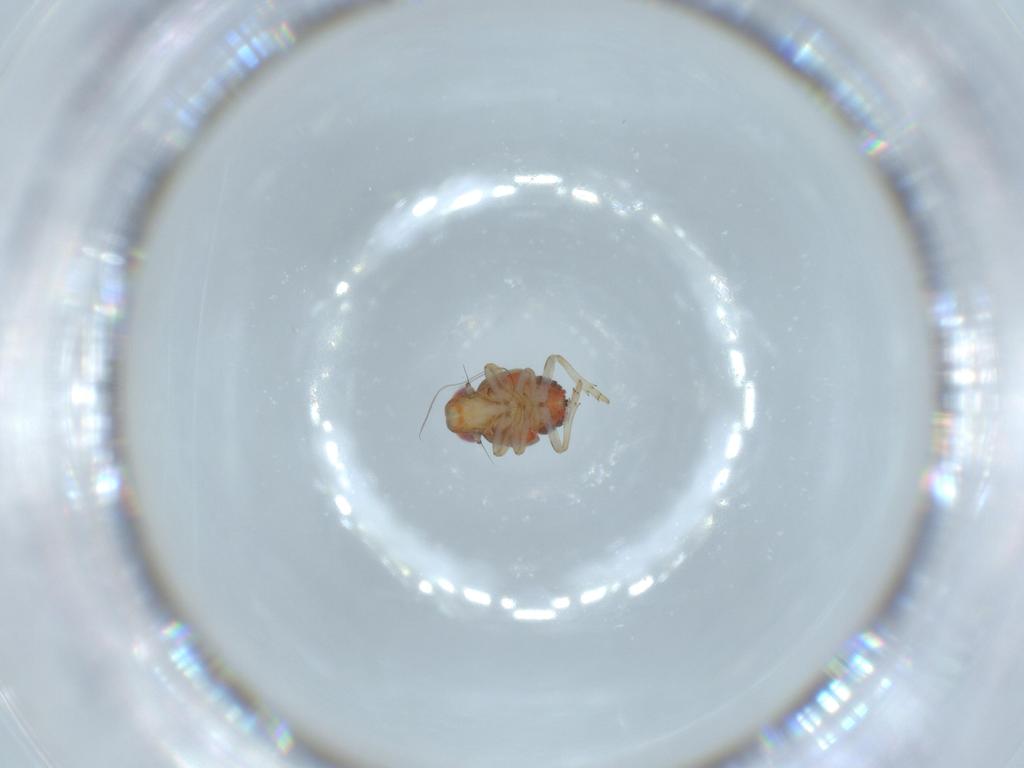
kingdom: Animalia
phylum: Arthropoda
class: Insecta
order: Hemiptera
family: Issidae
